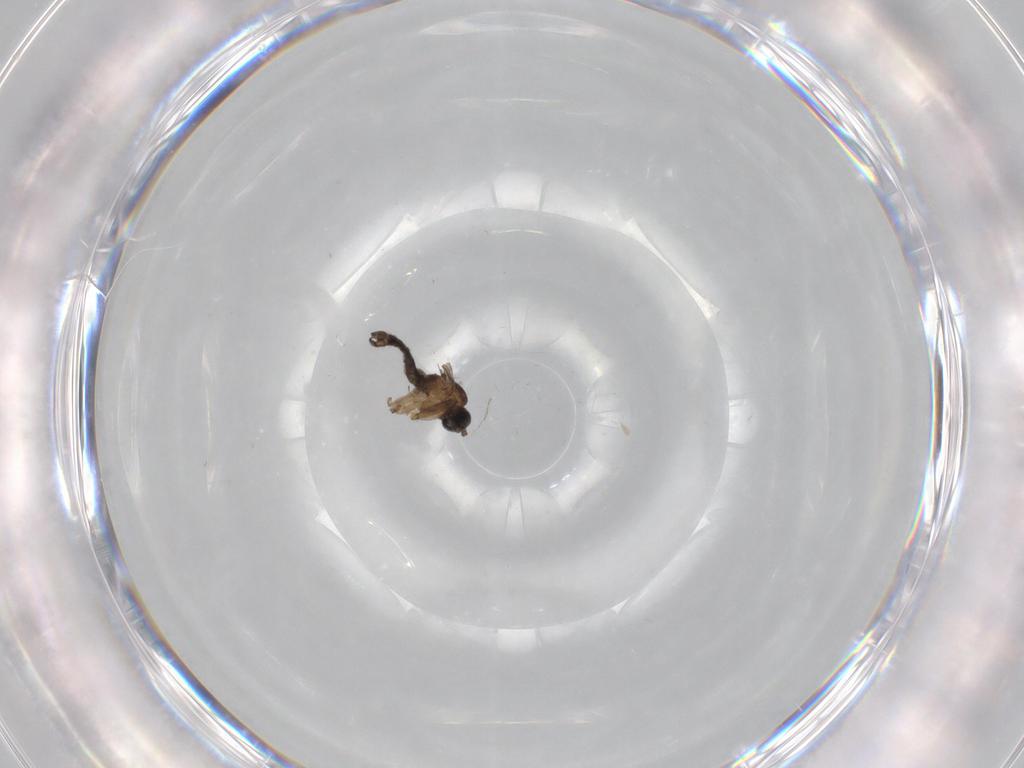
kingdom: Animalia
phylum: Arthropoda
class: Insecta
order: Diptera
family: Sciaridae
